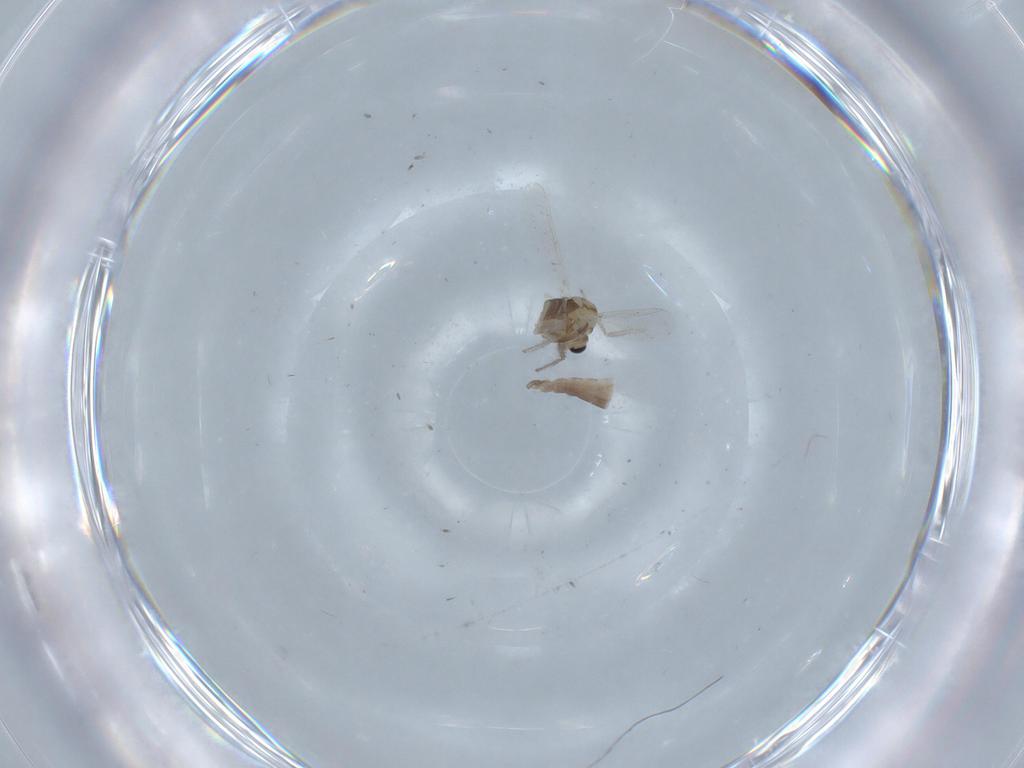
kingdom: Animalia
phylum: Arthropoda
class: Insecta
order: Diptera
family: Chironomidae
